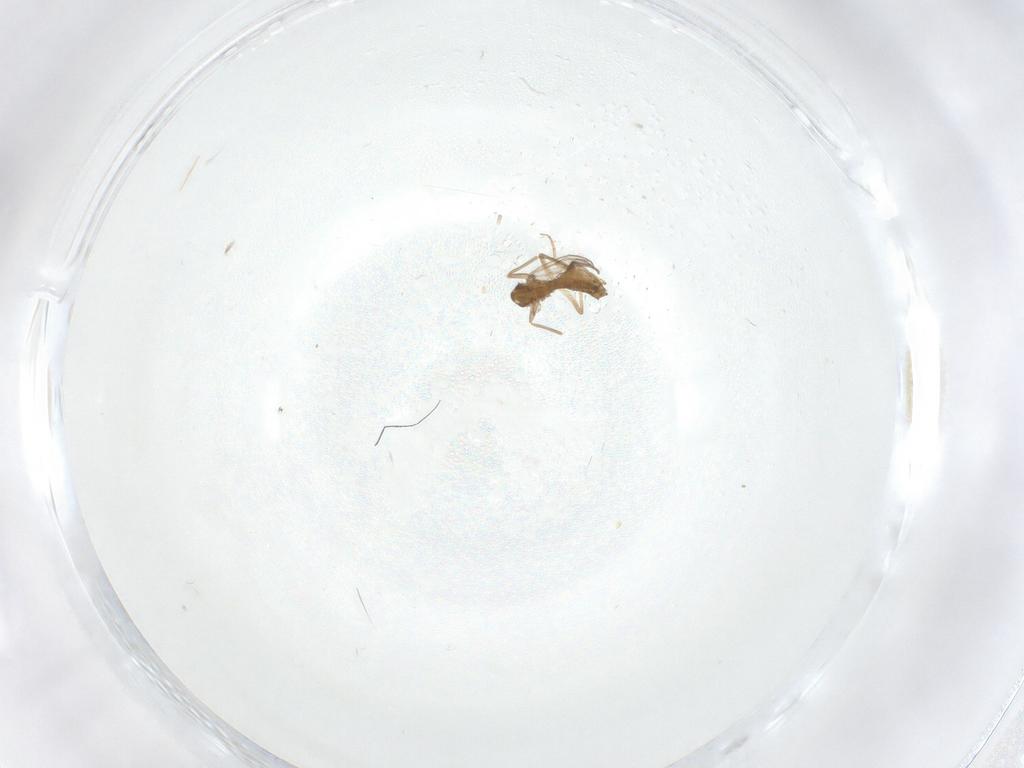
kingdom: Animalia
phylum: Arthropoda
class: Insecta
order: Diptera
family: Chironomidae
